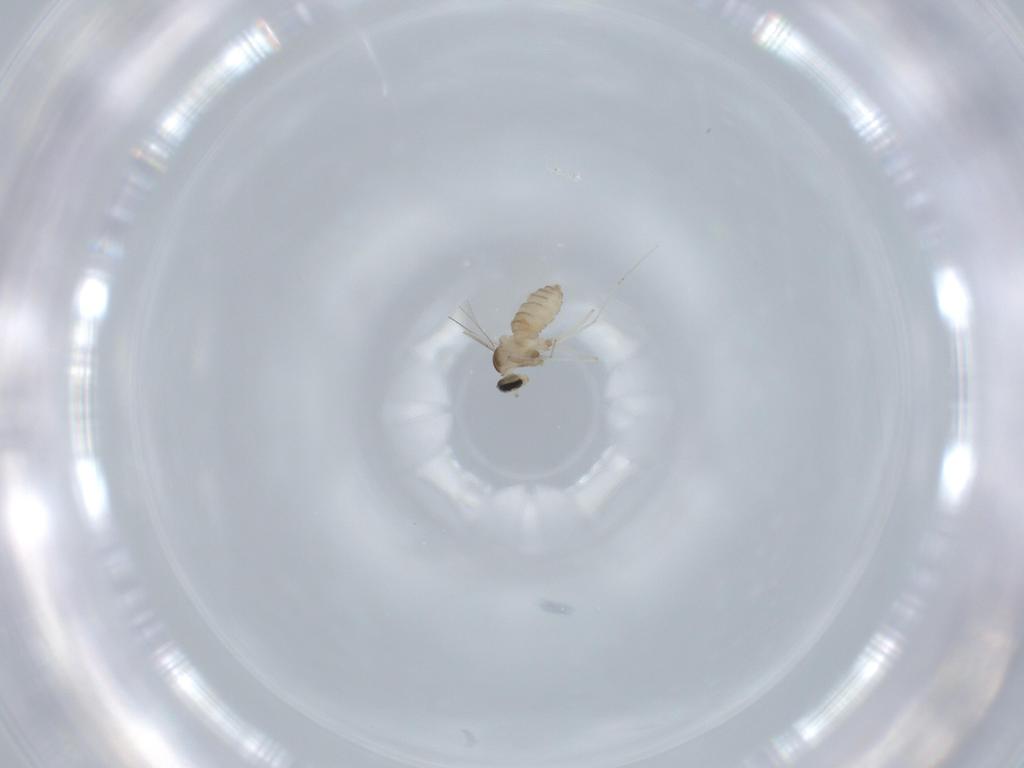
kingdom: Animalia
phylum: Arthropoda
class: Insecta
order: Diptera
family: Cecidomyiidae
